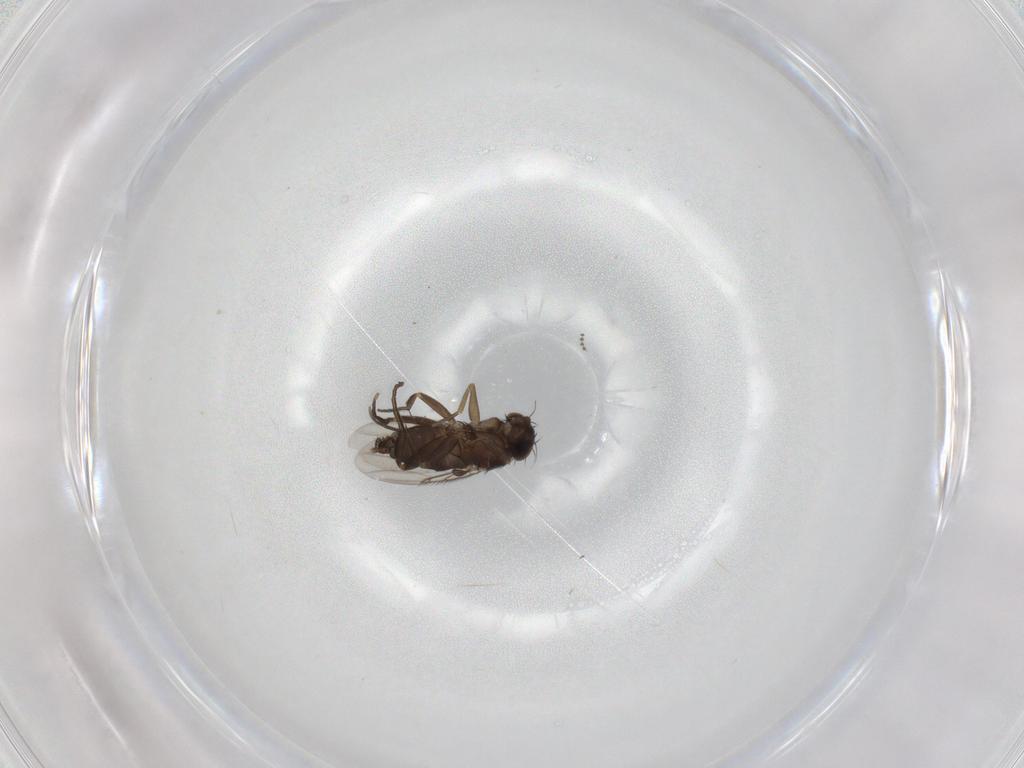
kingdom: Animalia
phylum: Arthropoda
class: Insecta
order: Diptera
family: Phoridae
